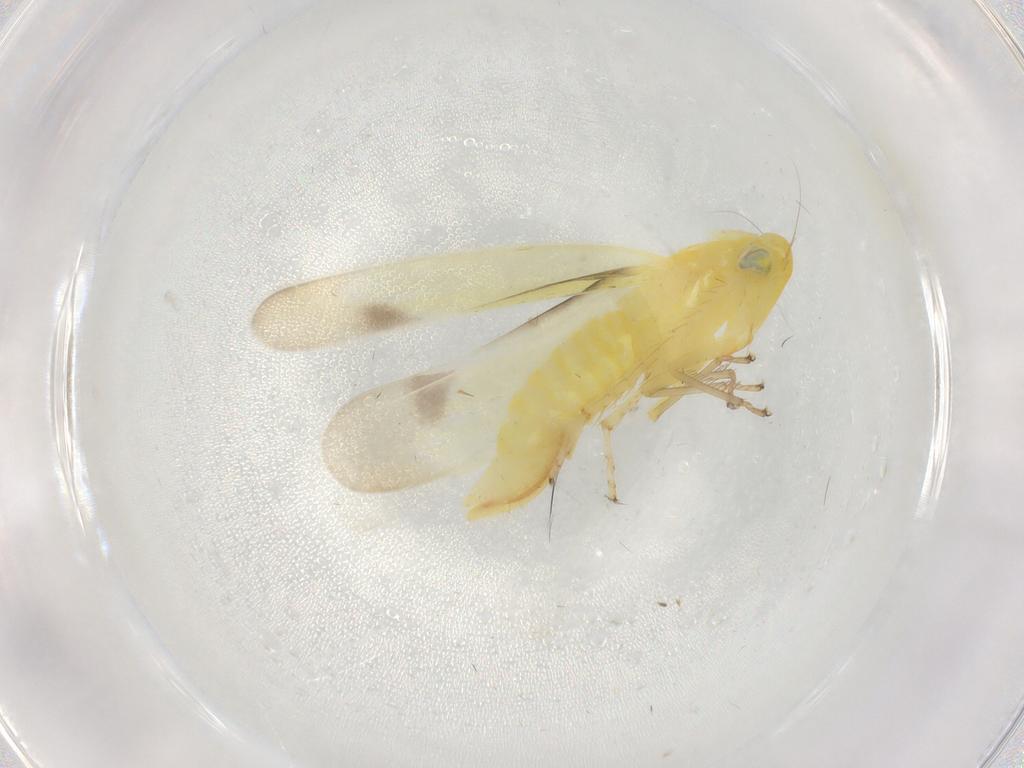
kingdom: Animalia
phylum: Arthropoda
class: Insecta
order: Hemiptera
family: Cicadellidae
